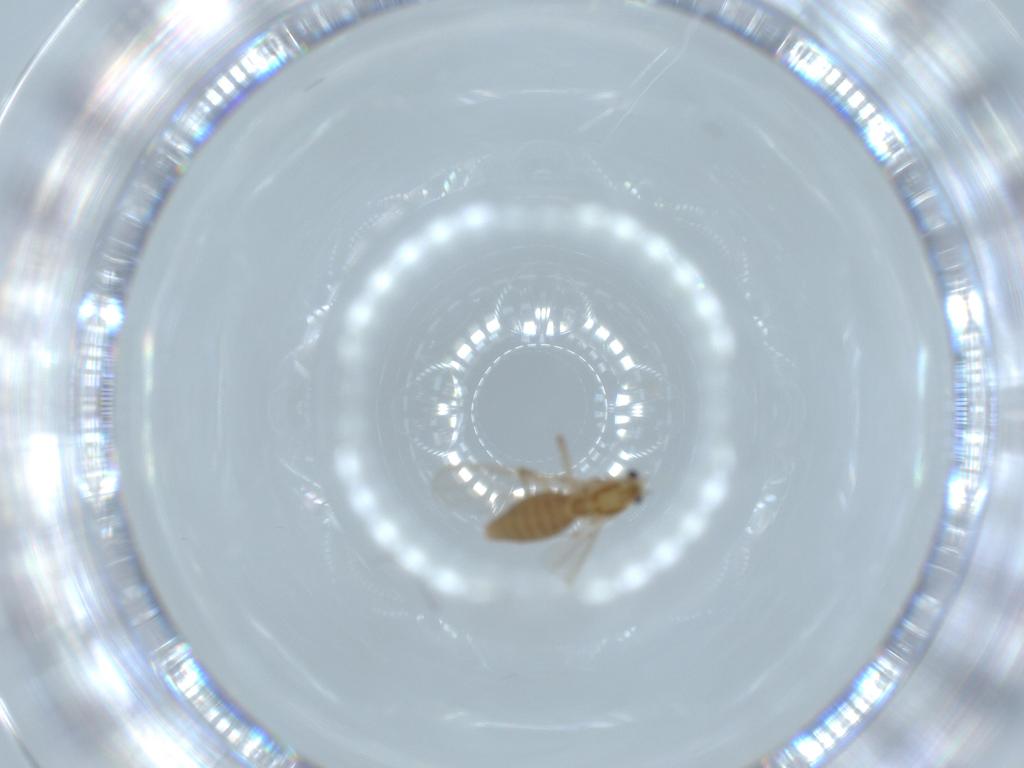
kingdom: Animalia
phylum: Arthropoda
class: Insecta
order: Diptera
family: Chironomidae
